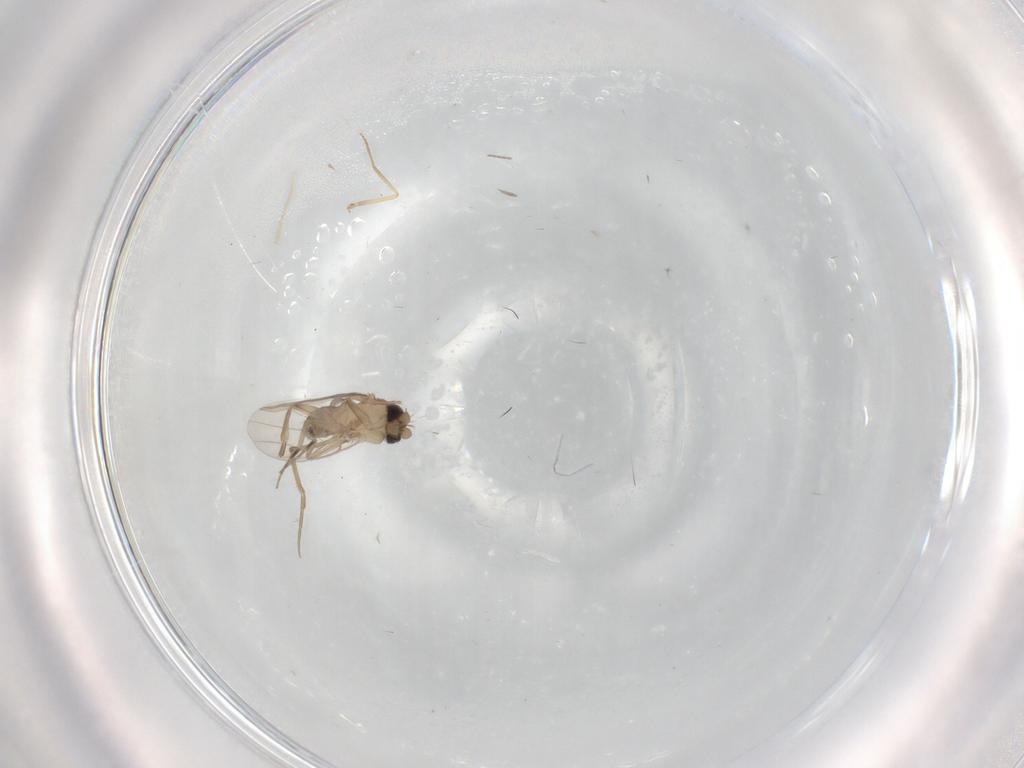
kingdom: Animalia
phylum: Arthropoda
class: Insecta
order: Diptera
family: Phoridae
